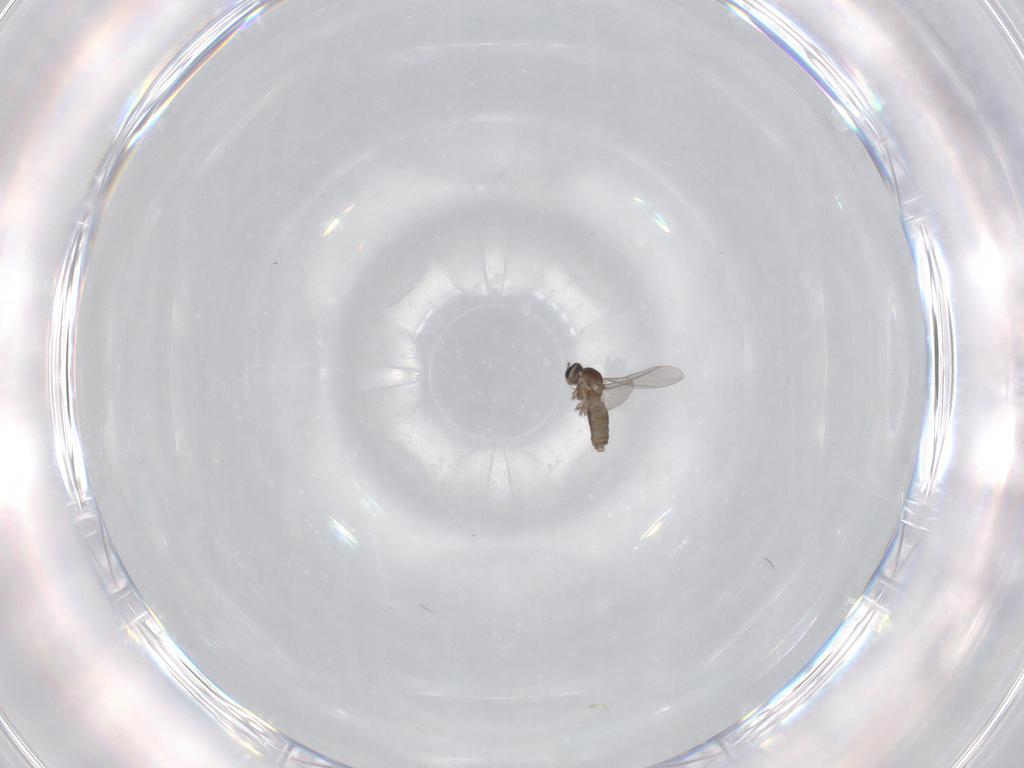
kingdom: Animalia
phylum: Arthropoda
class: Insecta
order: Diptera
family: Cecidomyiidae
